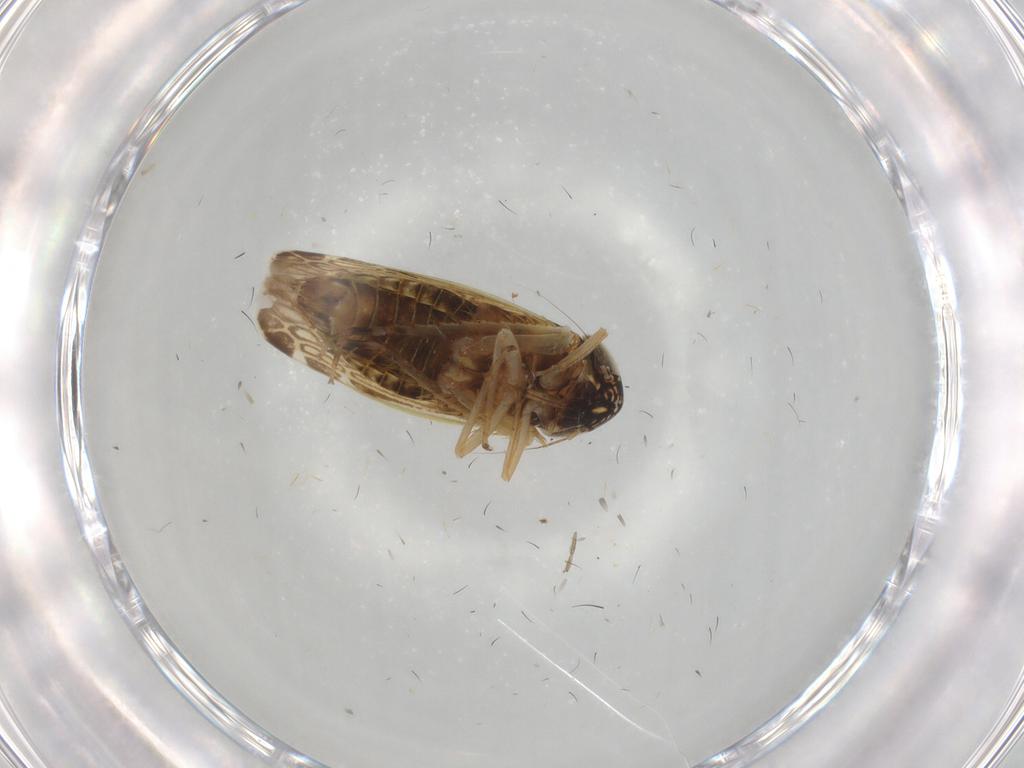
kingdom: Animalia
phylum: Arthropoda
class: Insecta
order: Hemiptera
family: Cicadellidae
